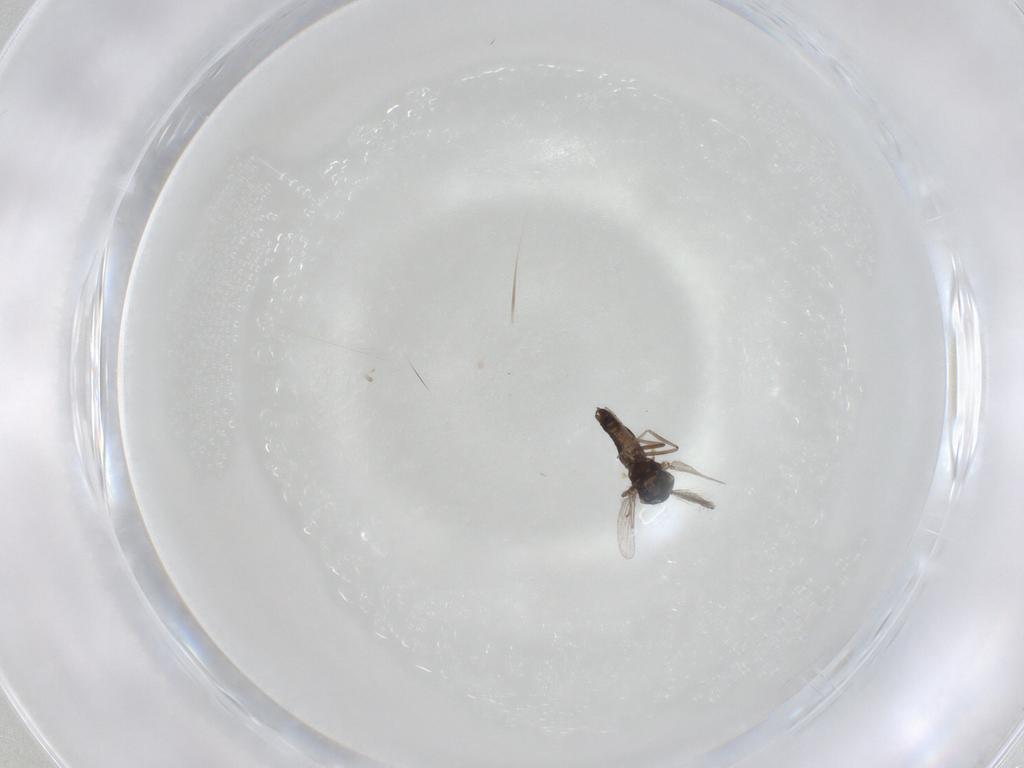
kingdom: Animalia
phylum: Arthropoda
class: Insecta
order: Diptera
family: Ceratopogonidae
